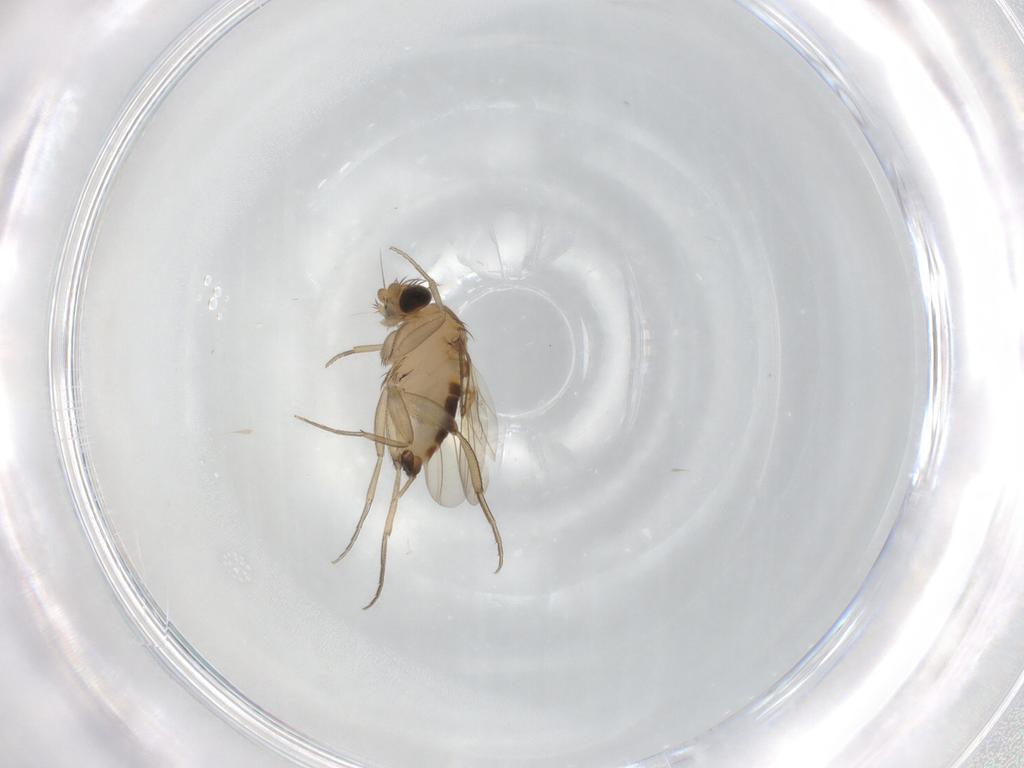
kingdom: Animalia
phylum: Arthropoda
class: Insecta
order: Diptera
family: Phoridae
